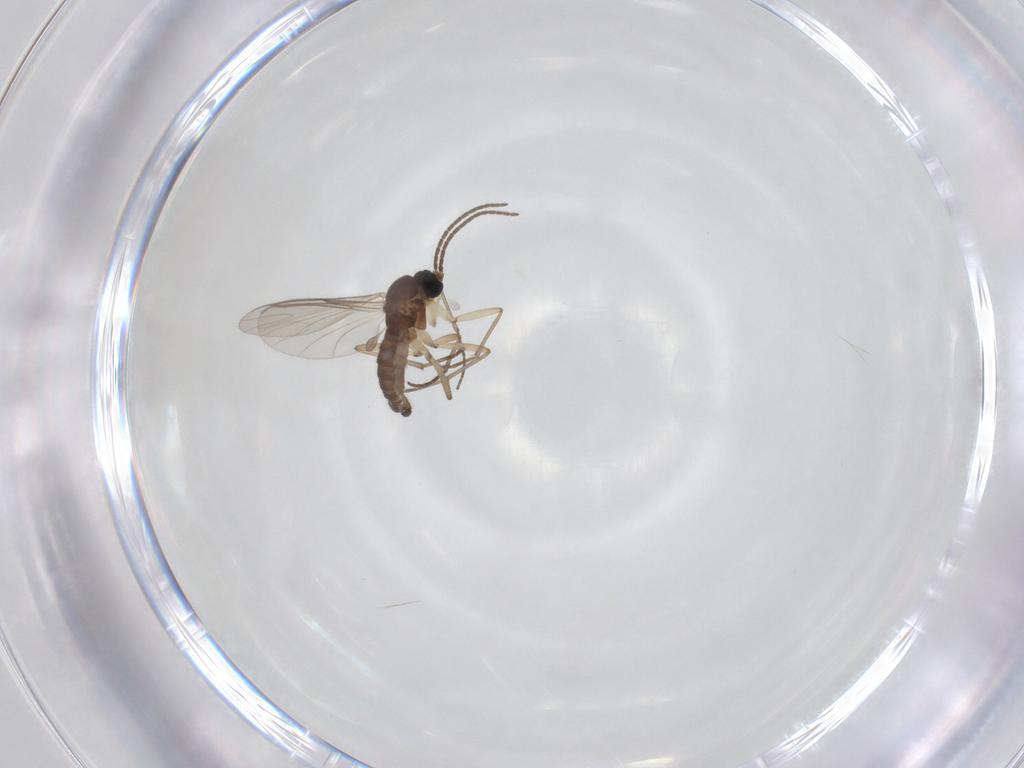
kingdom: Animalia
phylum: Arthropoda
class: Insecta
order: Diptera
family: Sciaridae
